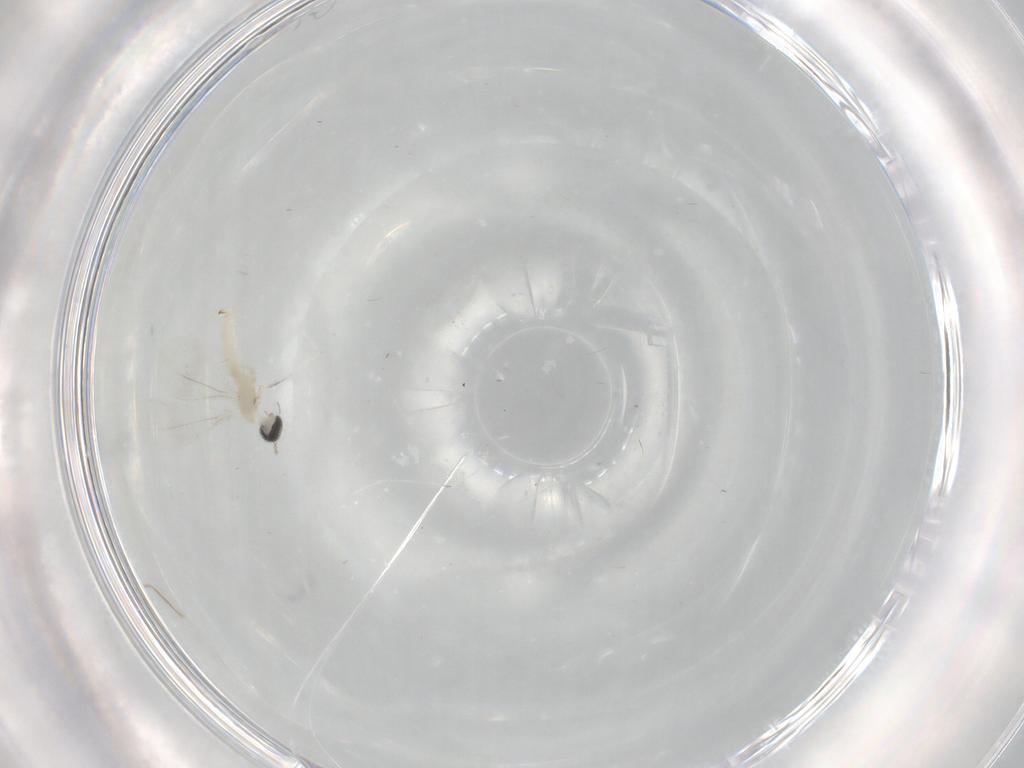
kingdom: Animalia
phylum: Arthropoda
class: Insecta
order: Diptera
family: Cecidomyiidae
